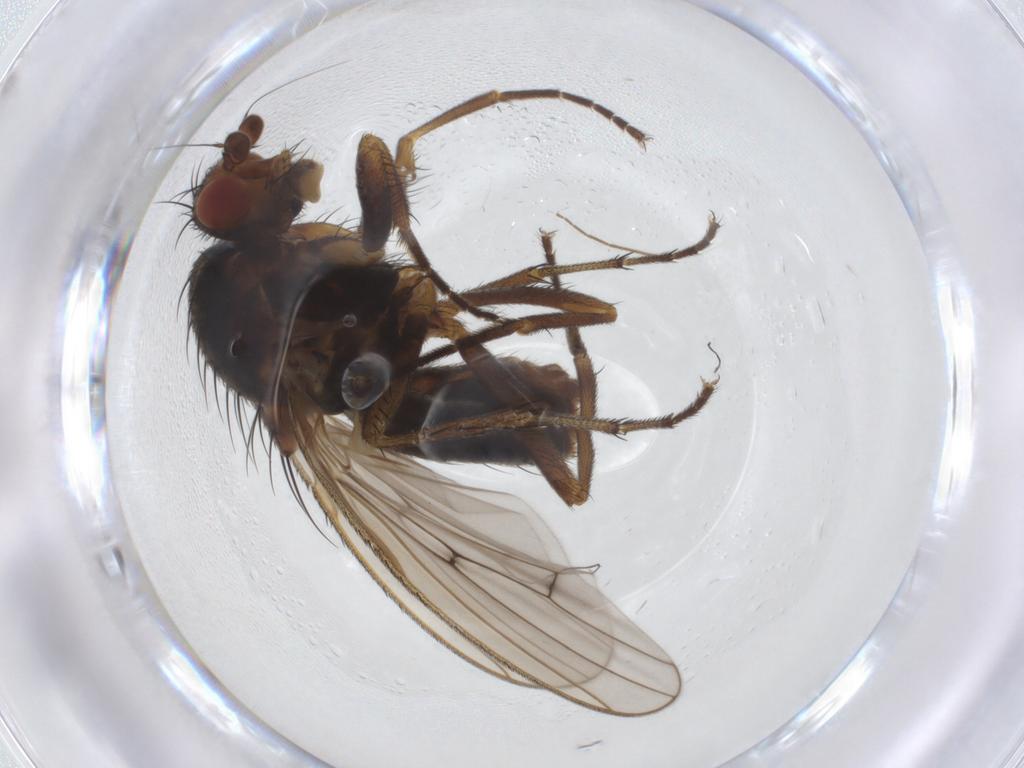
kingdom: Animalia
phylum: Arthropoda
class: Insecta
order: Diptera
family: Heleomyzidae
